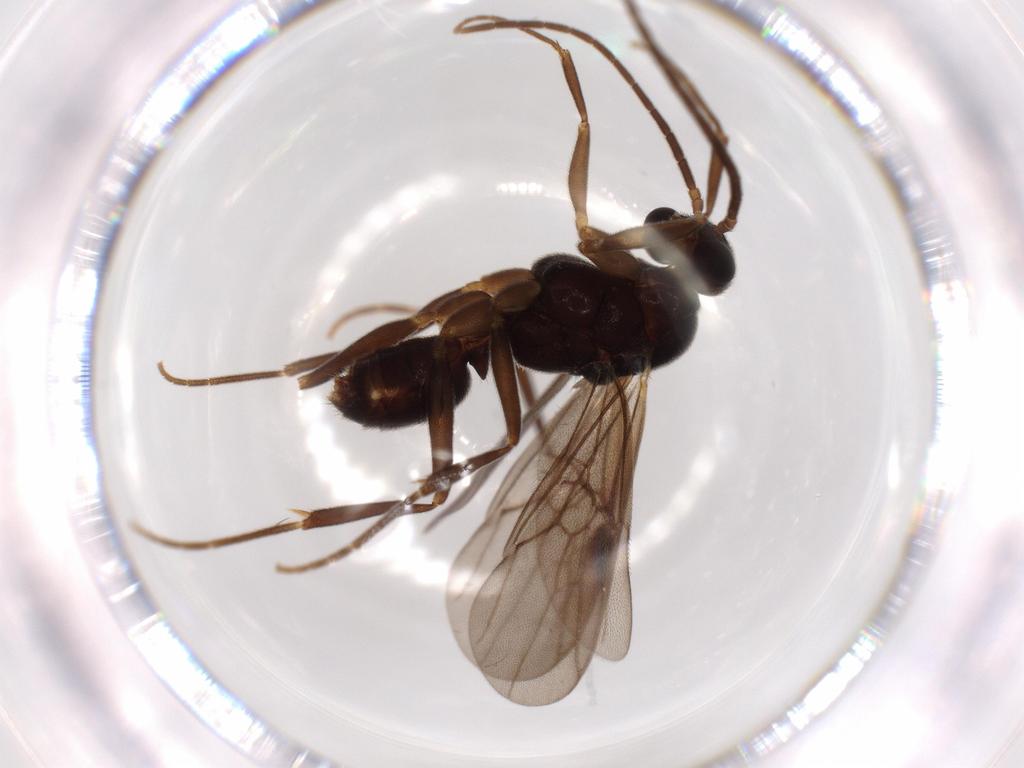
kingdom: Animalia
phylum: Arthropoda
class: Insecta
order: Hymenoptera
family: Formicidae
